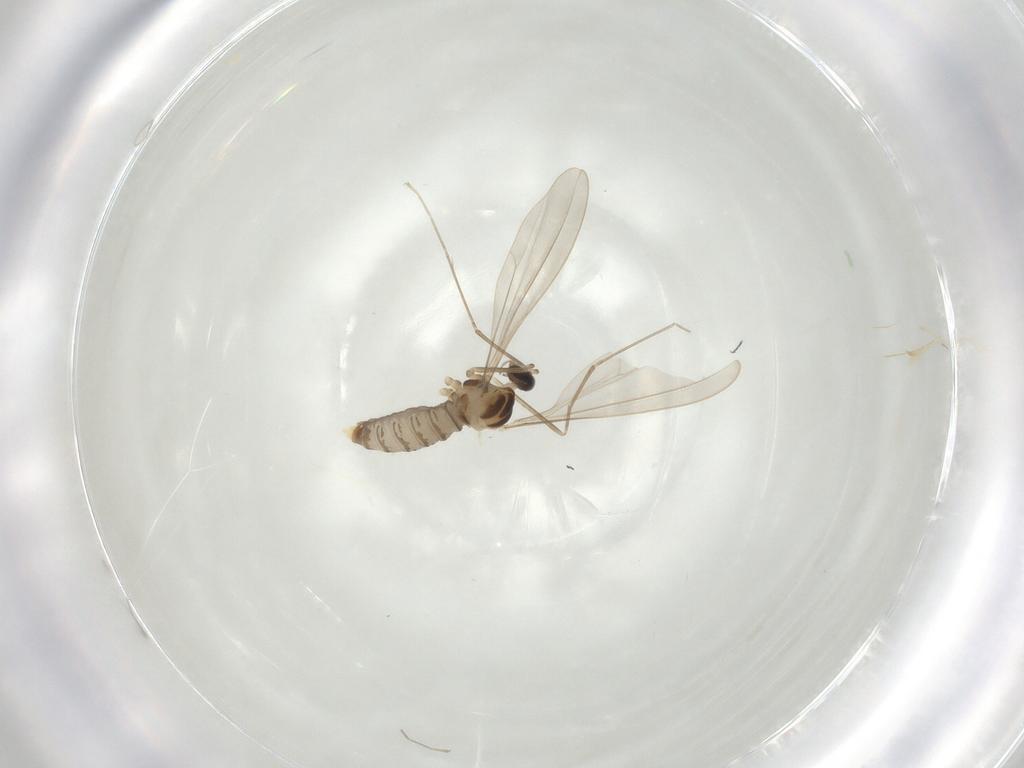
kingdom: Animalia
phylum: Arthropoda
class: Insecta
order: Diptera
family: Cecidomyiidae
